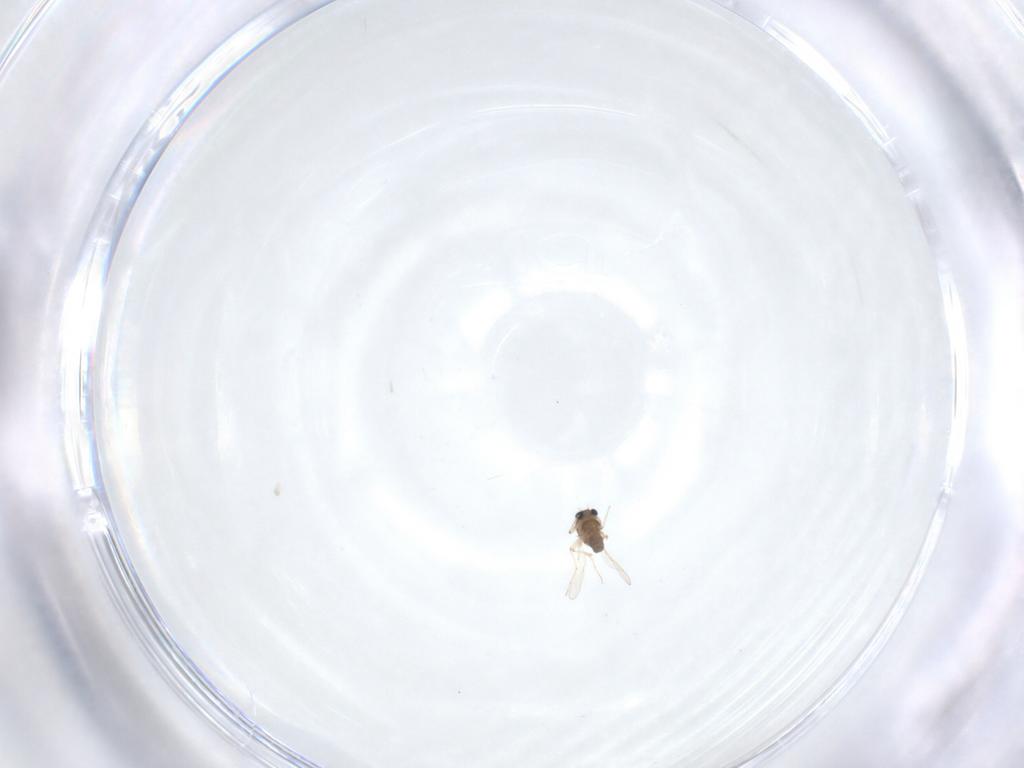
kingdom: Animalia
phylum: Arthropoda
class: Insecta
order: Diptera
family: Chironomidae
